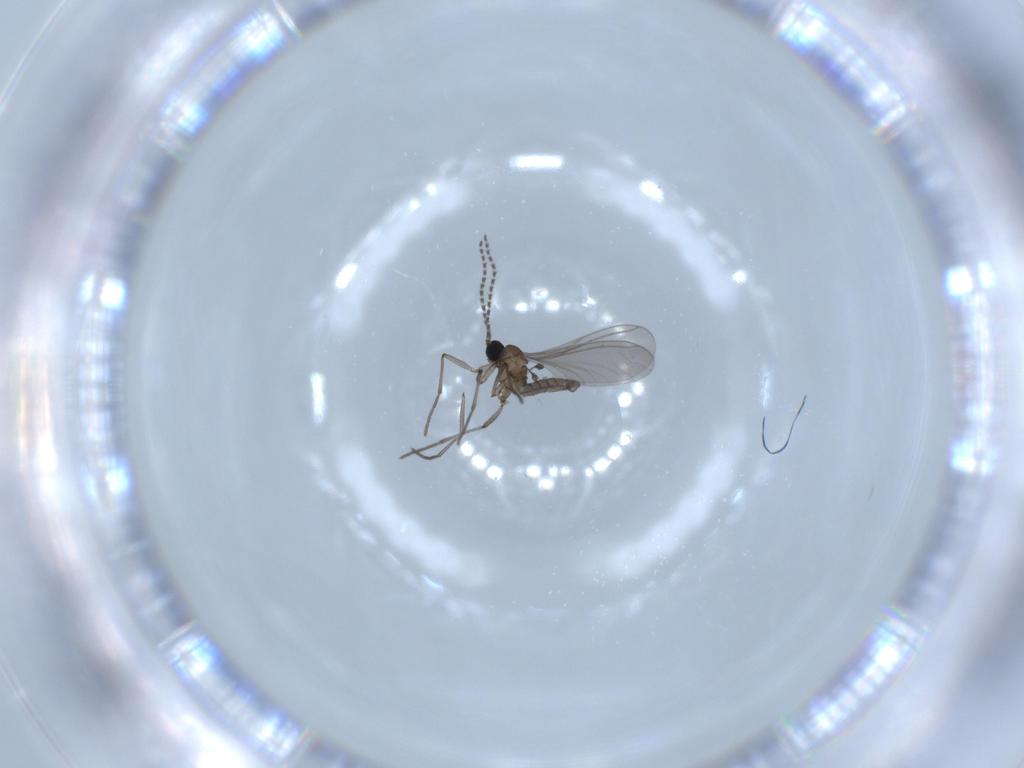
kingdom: Animalia
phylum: Arthropoda
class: Insecta
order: Diptera
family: Sciaridae
